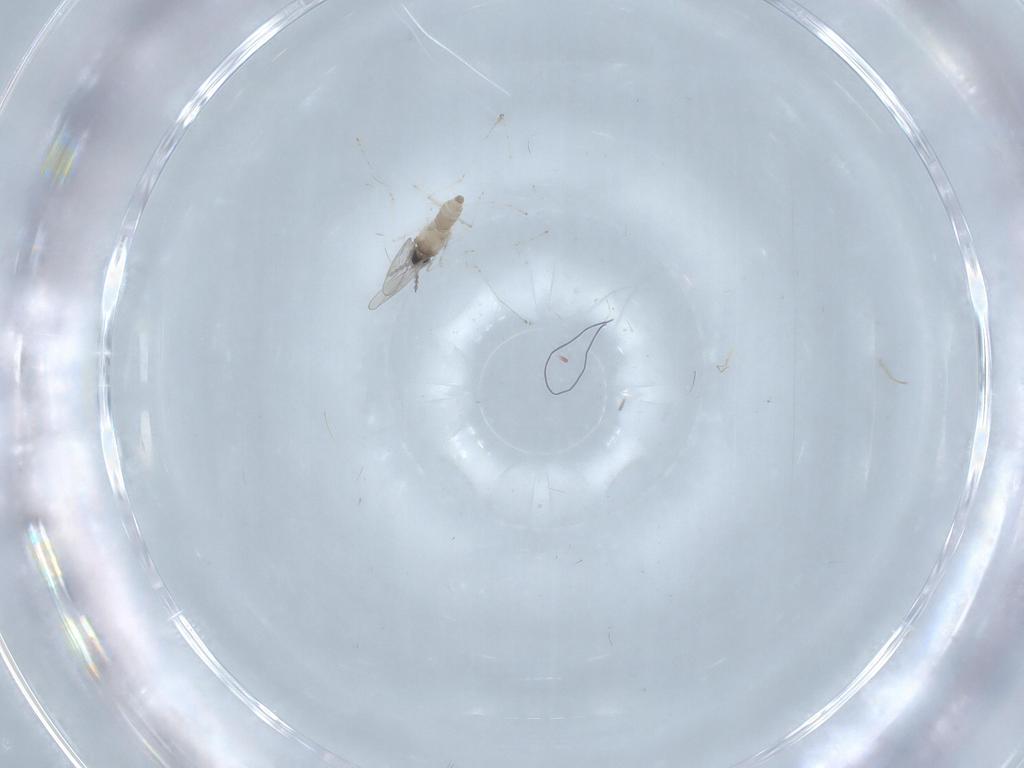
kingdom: Animalia
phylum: Arthropoda
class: Insecta
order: Diptera
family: Cecidomyiidae
